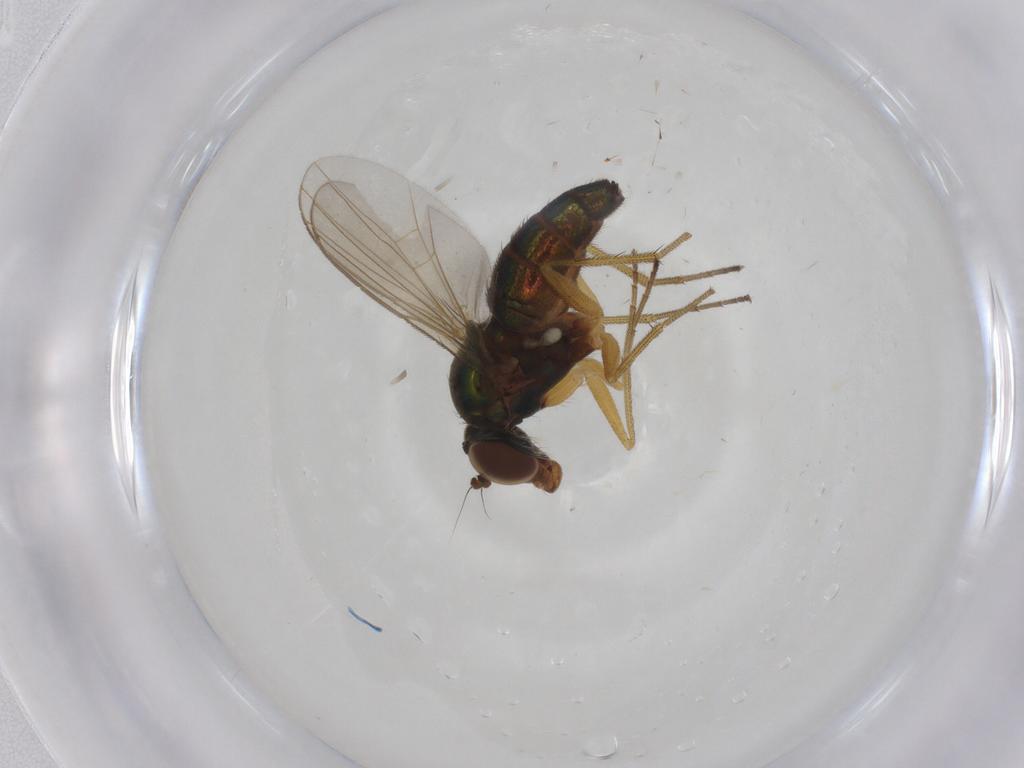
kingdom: Animalia
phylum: Arthropoda
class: Insecta
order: Diptera
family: Dolichopodidae
